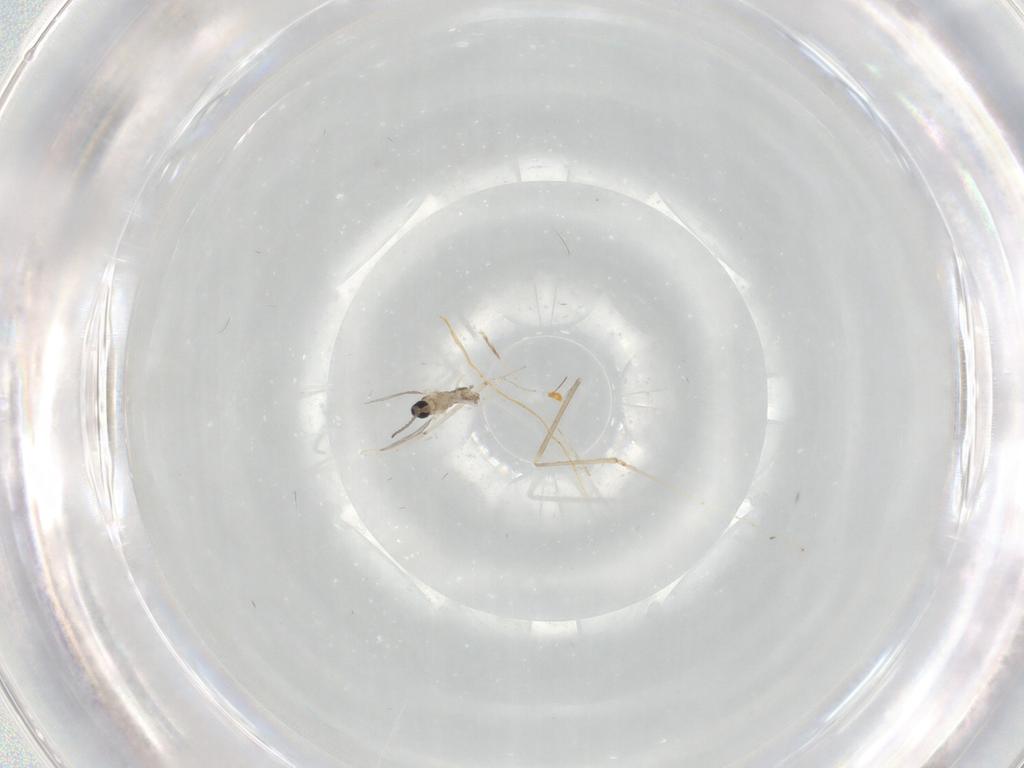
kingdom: Animalia
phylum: Arthropoda
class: Insecta
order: Diptera
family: Cecidomyiidae
